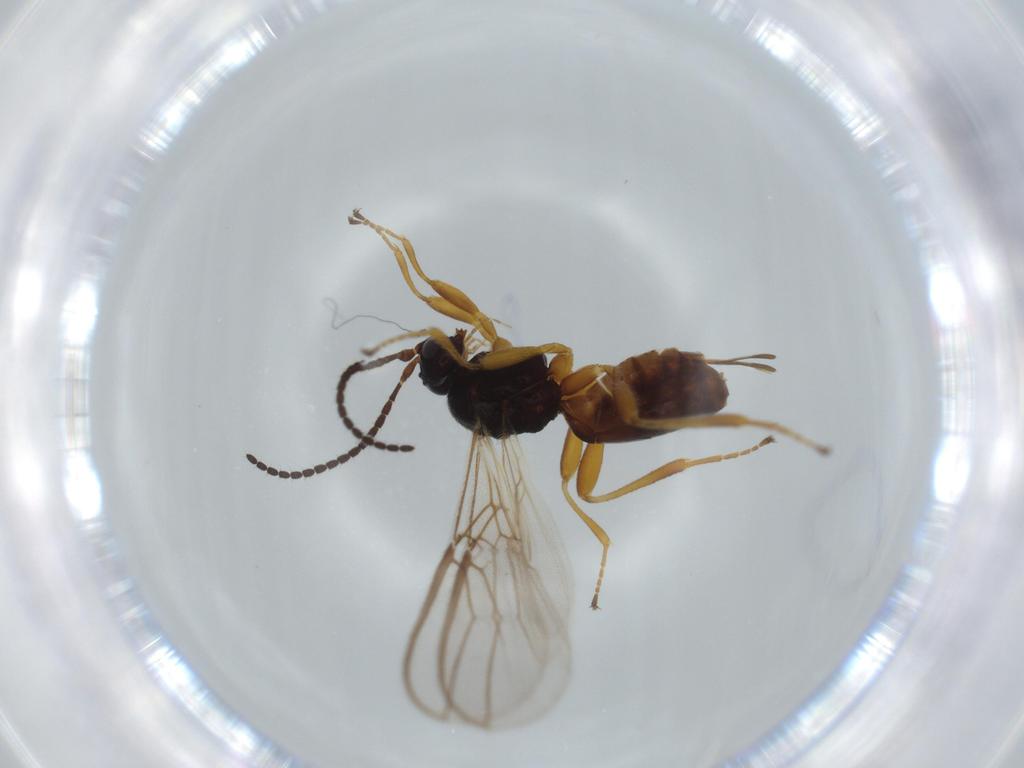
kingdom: Animalia
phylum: Arthropoda
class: Insecta
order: Hymenoptera
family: Braconidae
